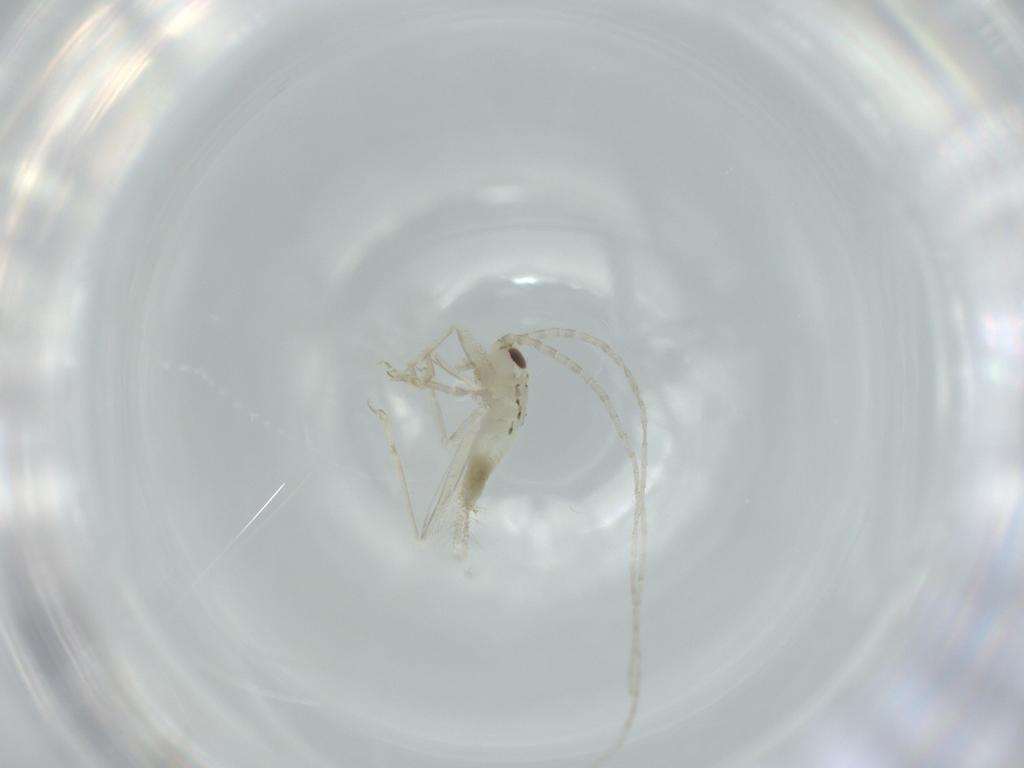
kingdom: Animalia
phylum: Arthropoda
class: Insecta
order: Orthoptera
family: Trigonidiidae
